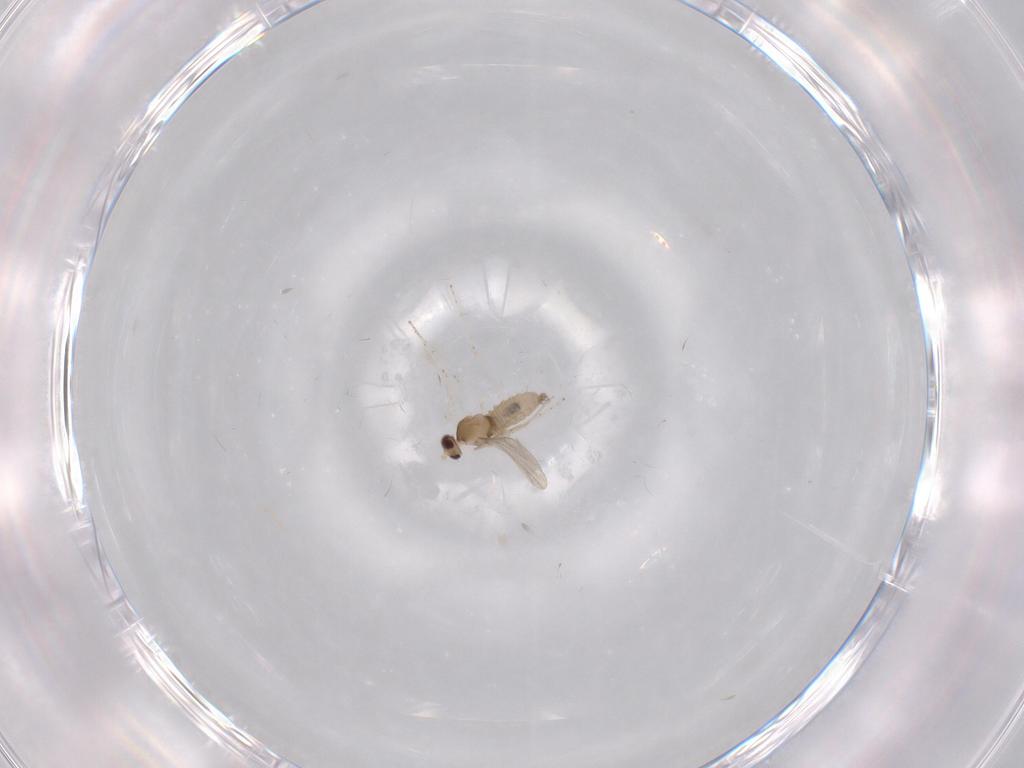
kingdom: Animalia
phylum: Arthropoda
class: Insecta
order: Diptera
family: Cecidomyiidae
